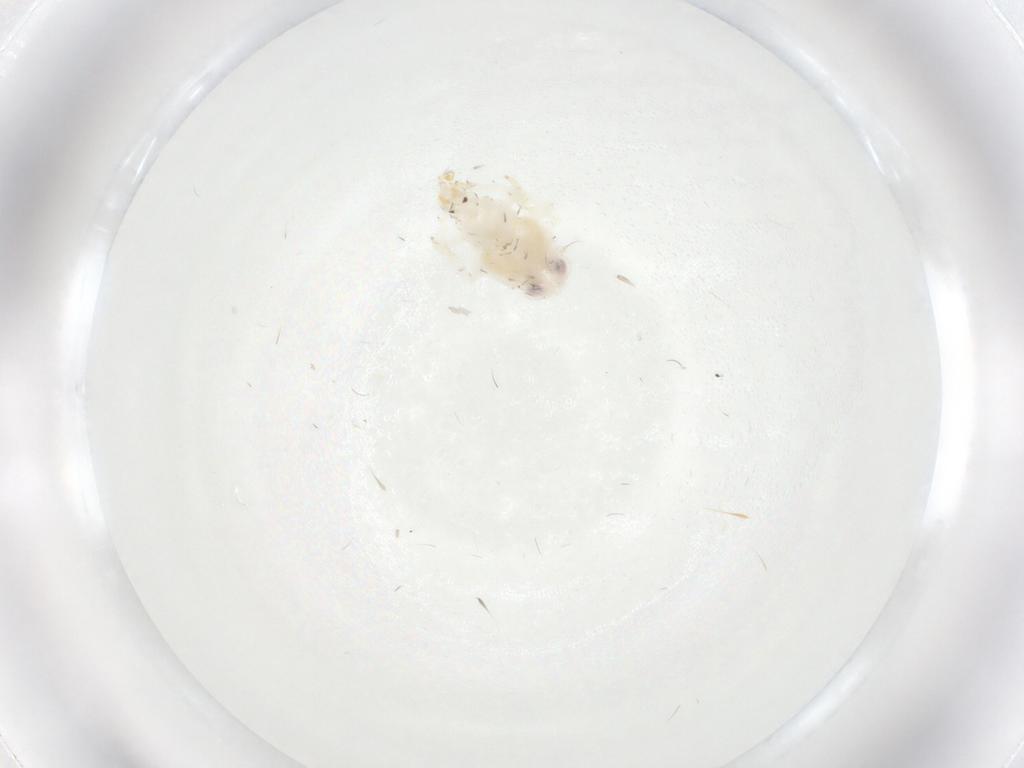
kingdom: Animalia
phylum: Arthropoda
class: Insecta
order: Hemiptera
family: Nogodinidae
